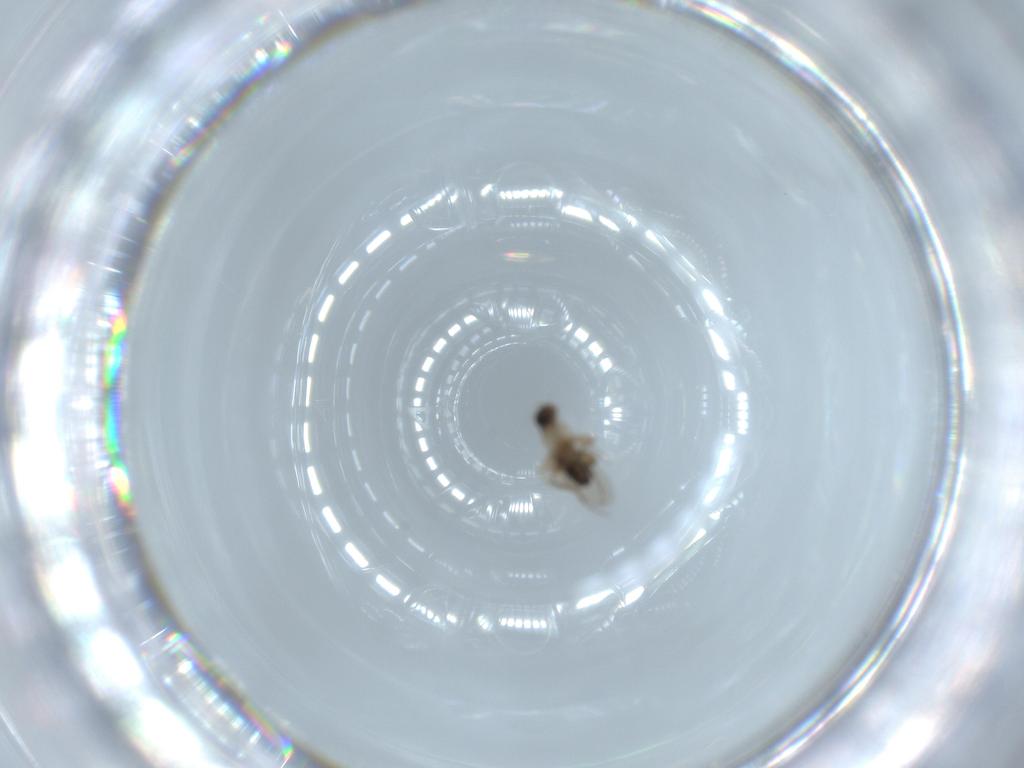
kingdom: Animalia
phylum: Arthropoda
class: Insecta
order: Diptera
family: Phoridae
